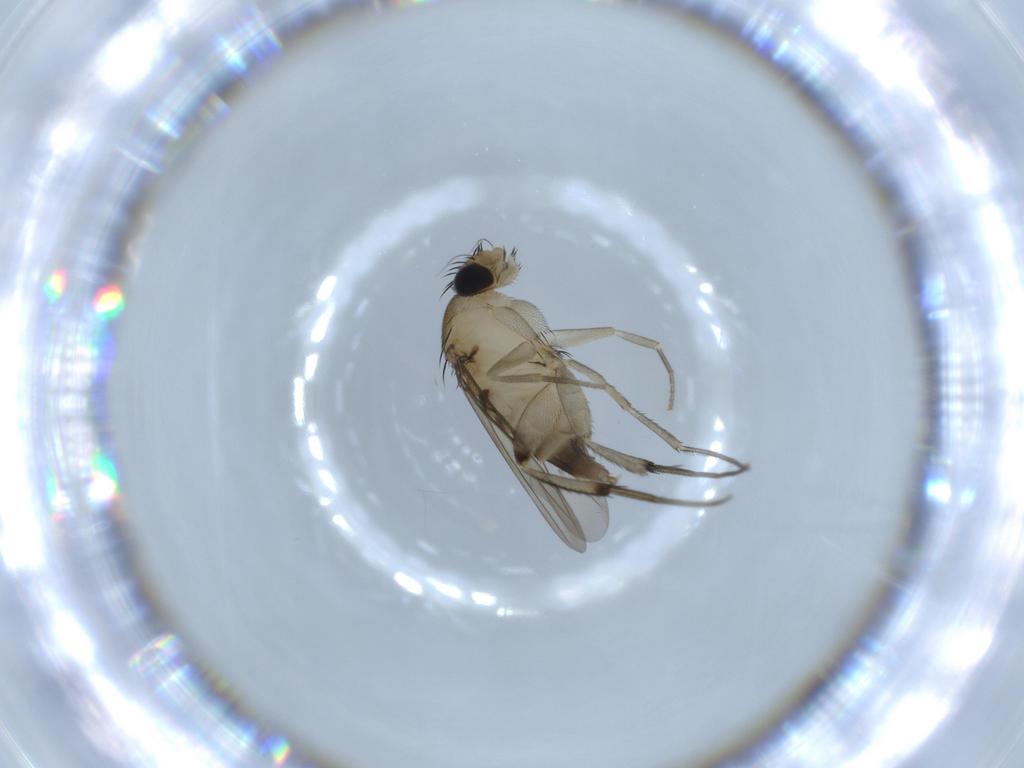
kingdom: Animalia
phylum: Arthropoda
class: Insecta
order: Diptera
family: Phoridae
